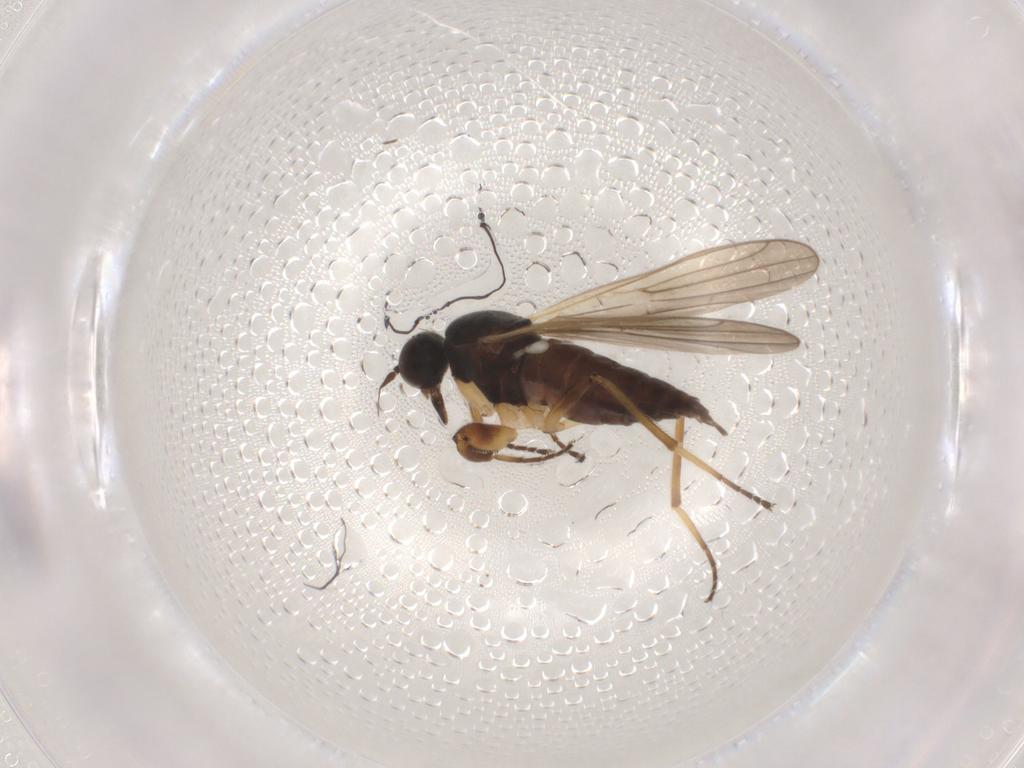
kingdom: Animalia
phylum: Arthropoda
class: Insecta
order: Diptera
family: Hybotidae
